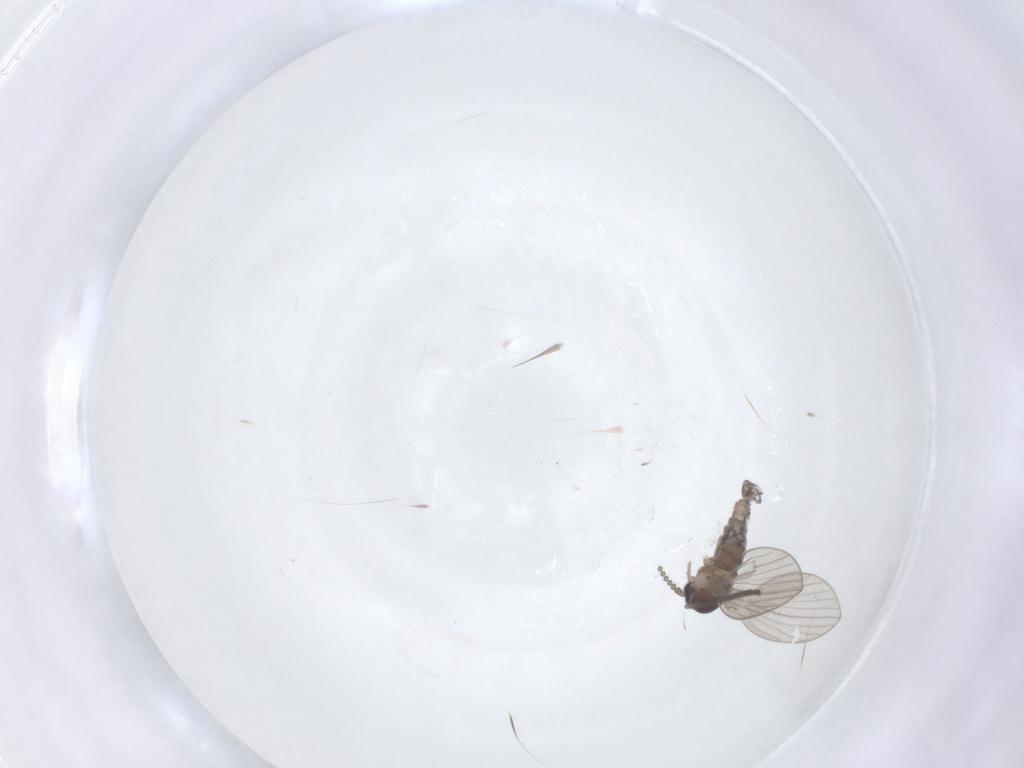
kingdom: Animalia
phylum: Arthropoda
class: Insecta
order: Diptera
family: Psychodidae
